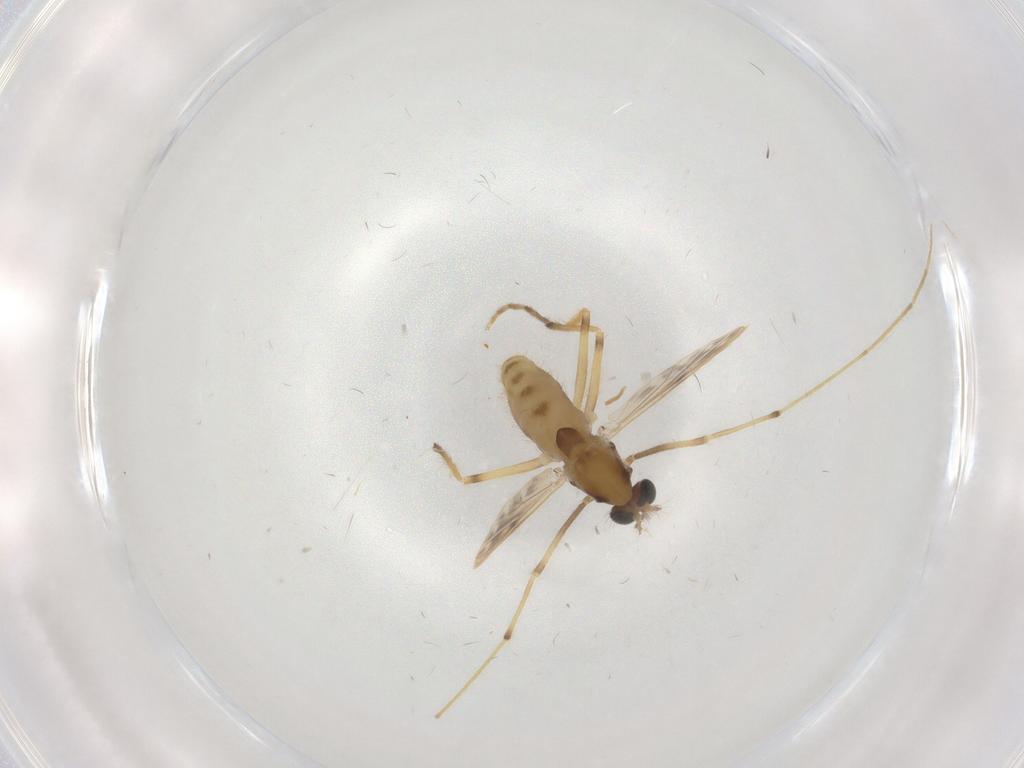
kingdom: Animalia
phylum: Arthropoda
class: Insecta
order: Diptera
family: Chironomidae
